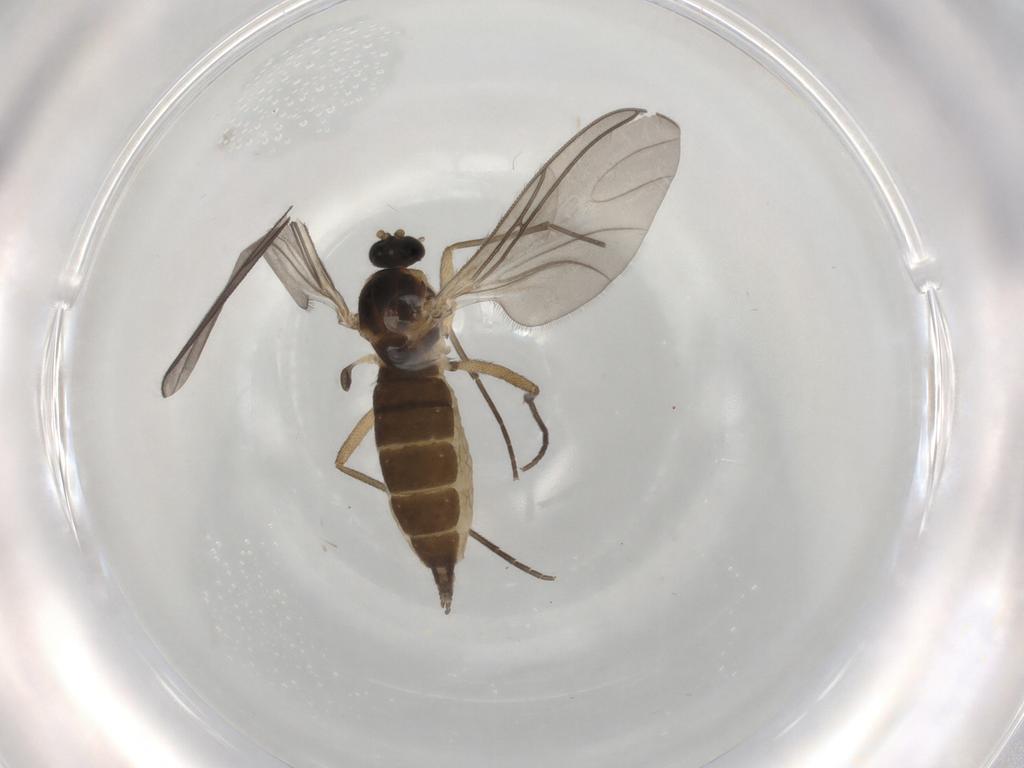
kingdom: Animalia
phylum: Arthropoda
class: Insecta
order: Diptera
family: Sciaridae
